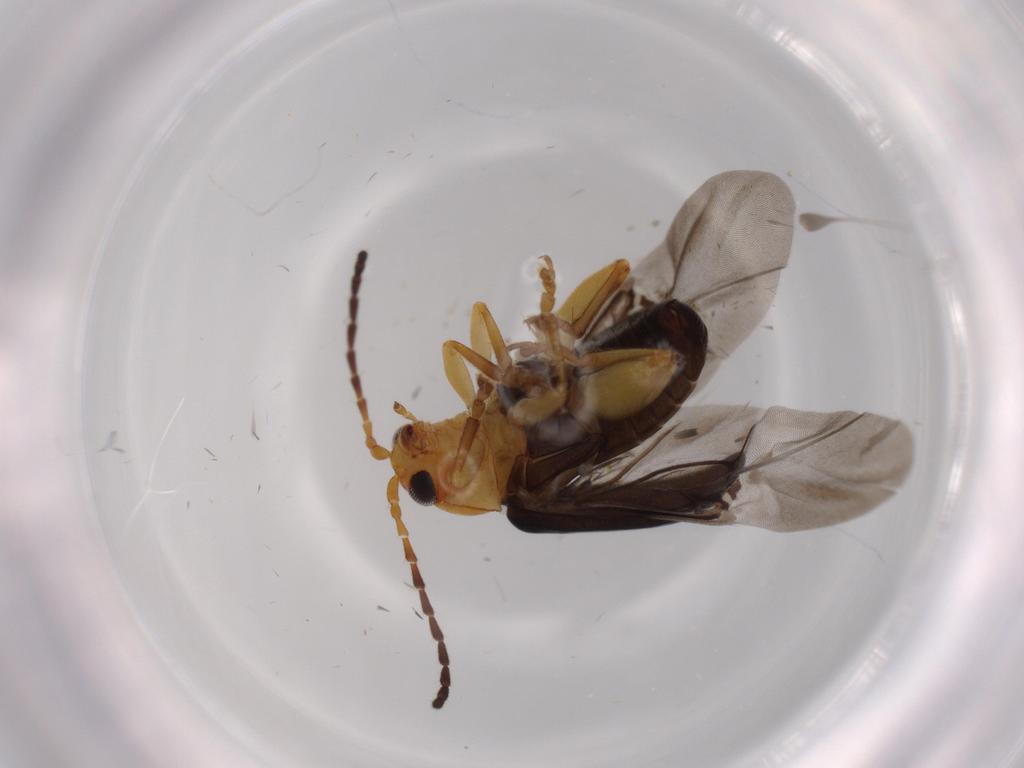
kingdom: Animalia
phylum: Arthropoda
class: Insecta
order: Coleoptera
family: Chrysomelidae
